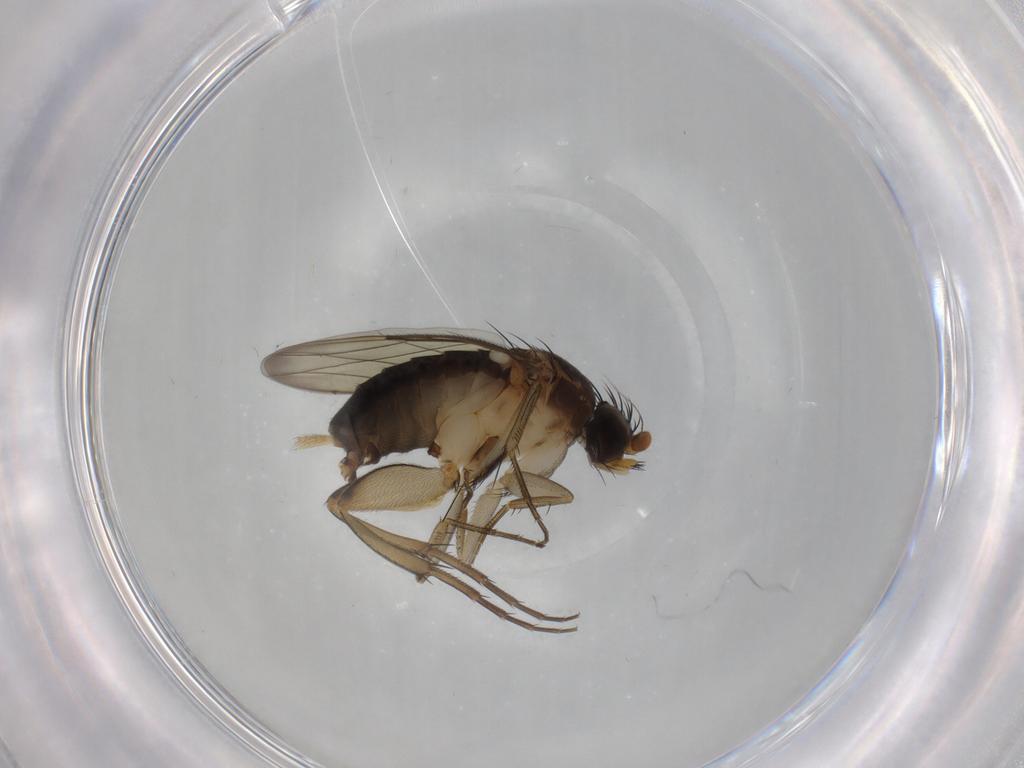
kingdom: Animalia
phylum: Arthropoda
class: Insecta
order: Diptera
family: Phoridae
